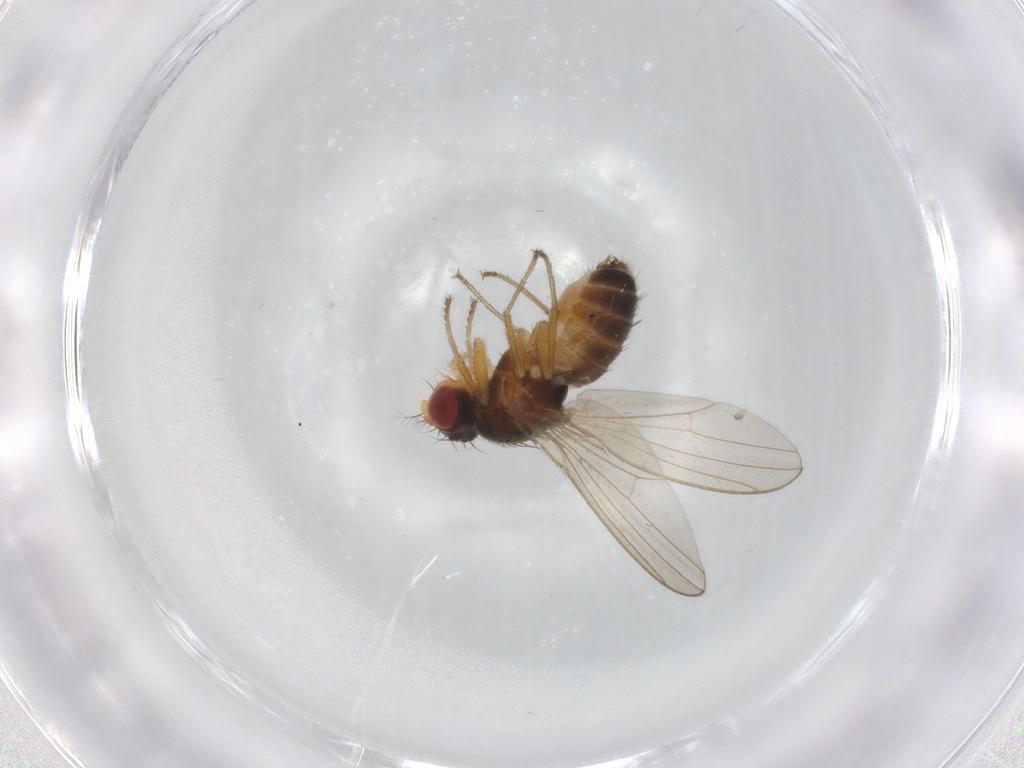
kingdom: Animalia
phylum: Arthropoda
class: Insecta
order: Diptera
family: Drosophilidae
